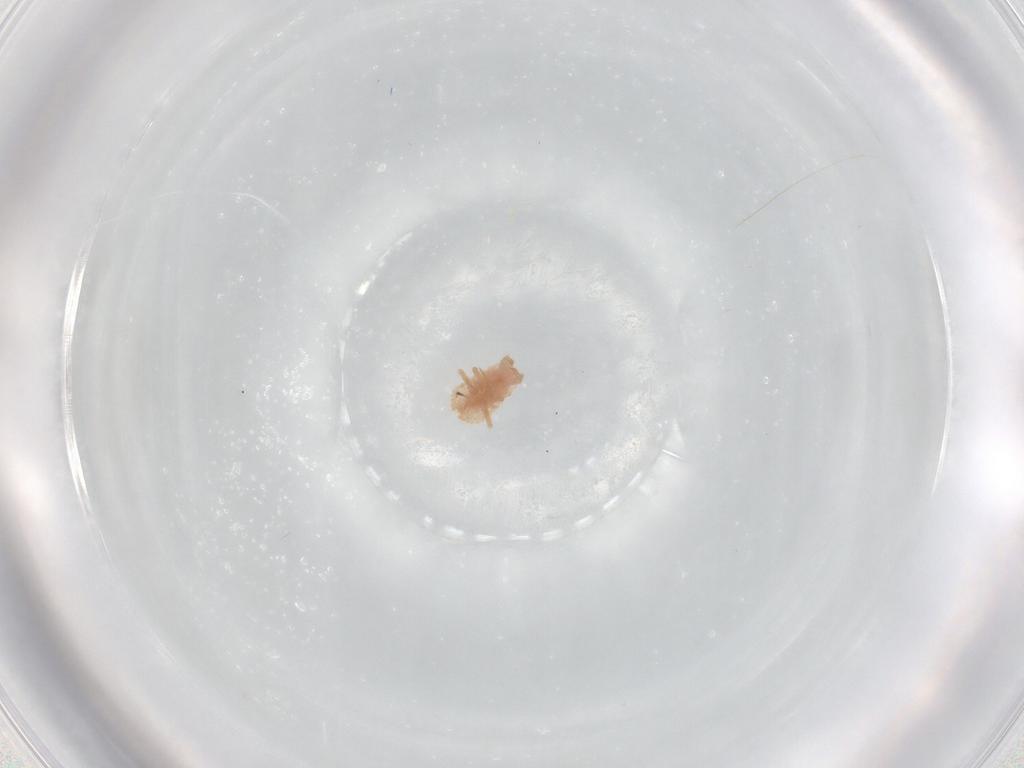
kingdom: Animalia
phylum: Arthropoda
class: Insecta
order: Hemiptera
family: Coccoidea_incertae_sedis
